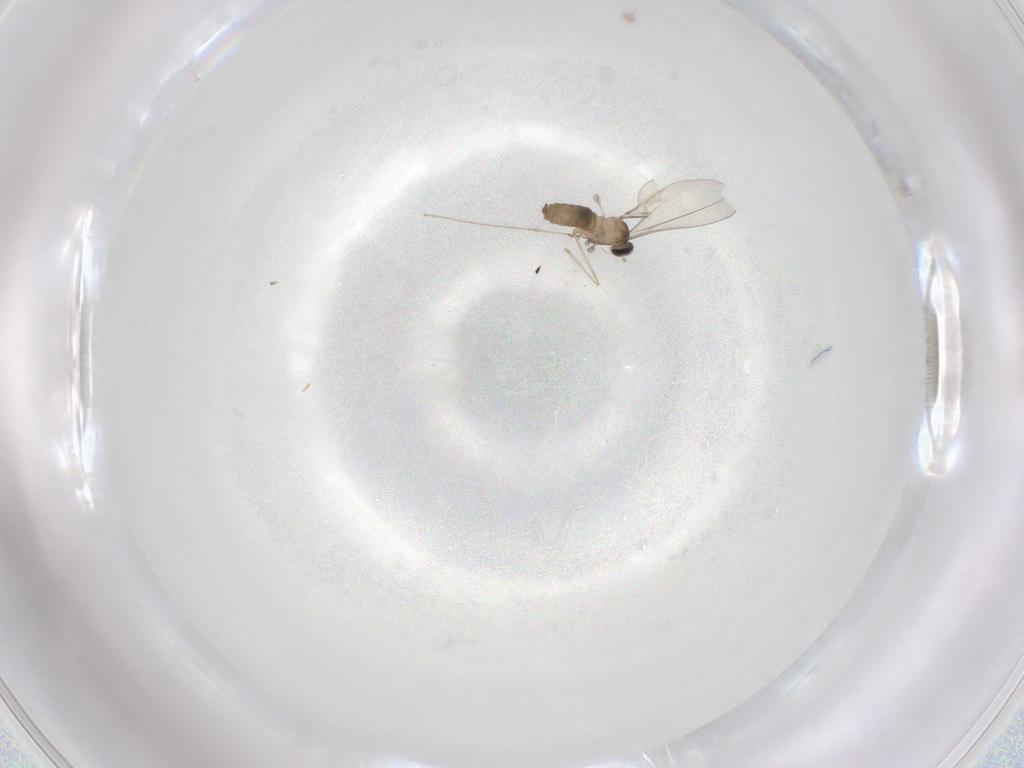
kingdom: Animalia
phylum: Arthropoda
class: Insecta
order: Diptera
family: Cecidomyiidae
